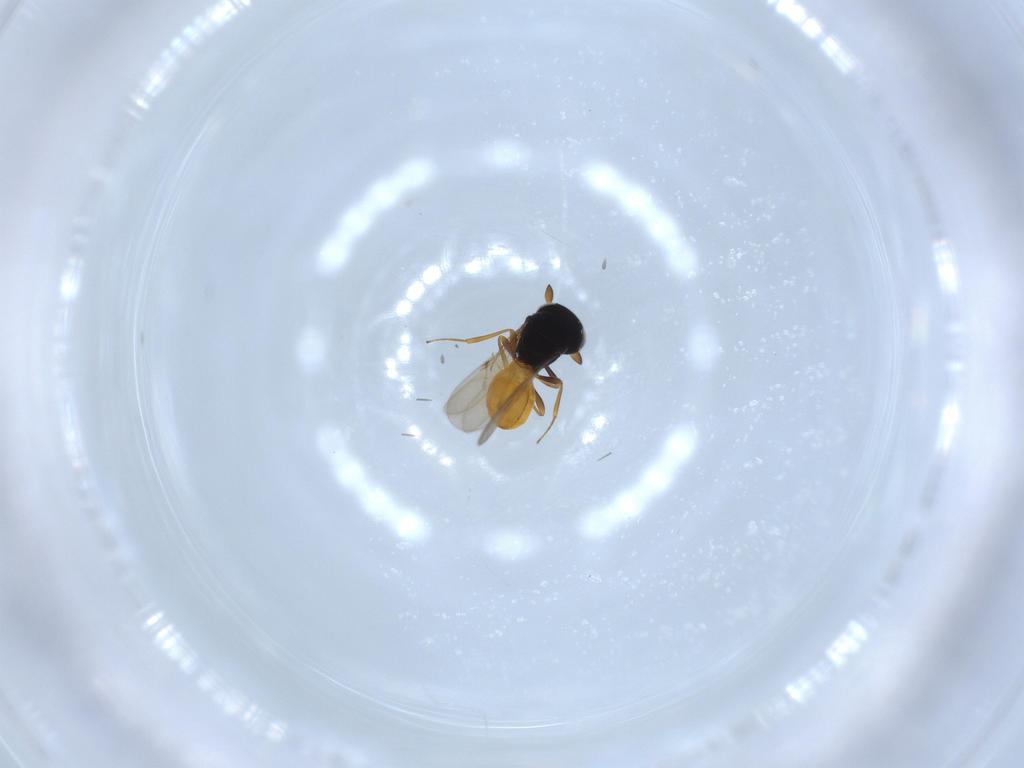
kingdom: Animalia
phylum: Arthropoda
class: Insecta
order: Hymenoptera
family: Scelionidae
